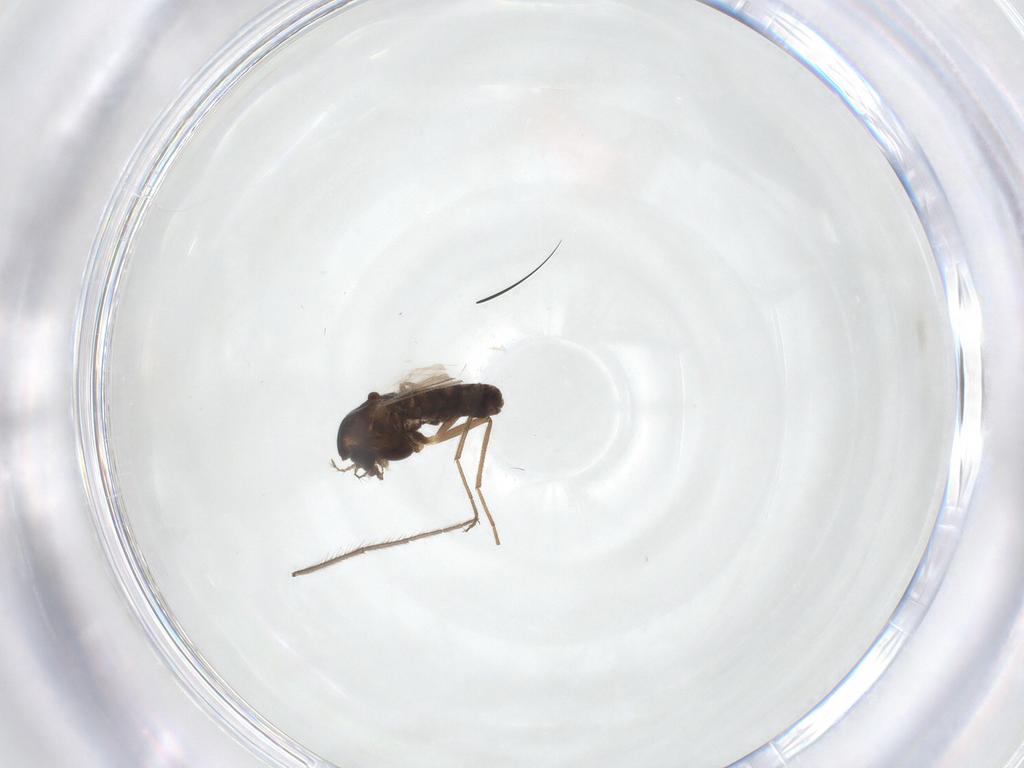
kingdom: Animalia
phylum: Arthropoda
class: Insecta
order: Diptera
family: Chironomidae
